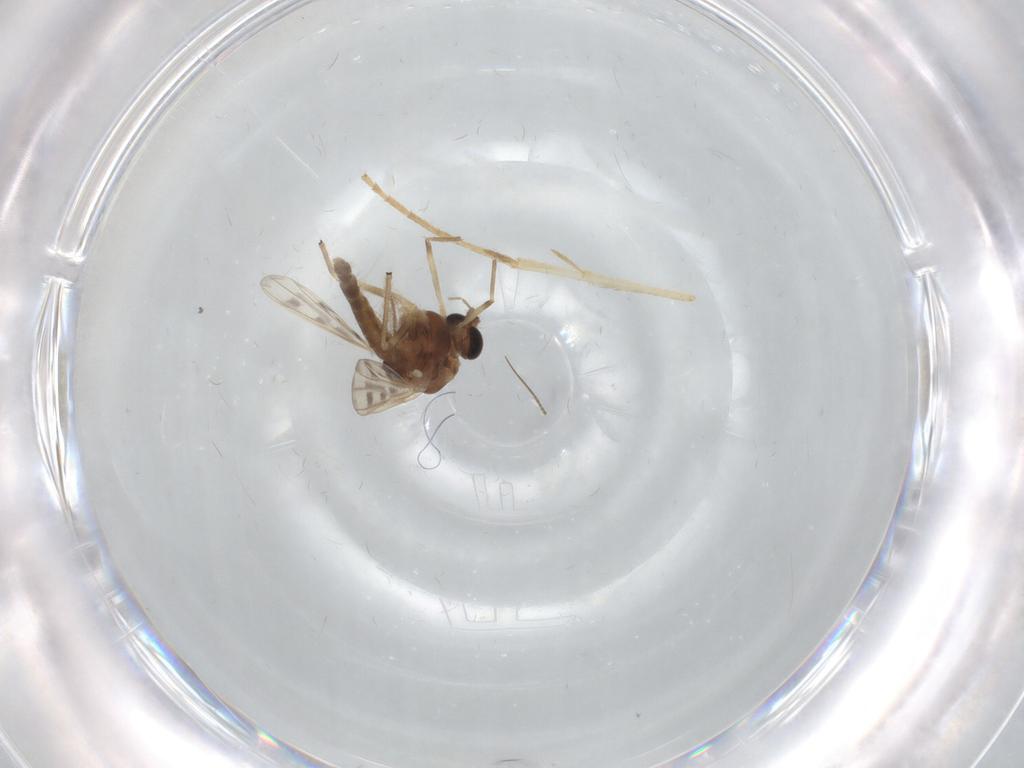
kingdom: Animalia
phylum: Arthropoda
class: Insecta
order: Diptera
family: Chironomidae
